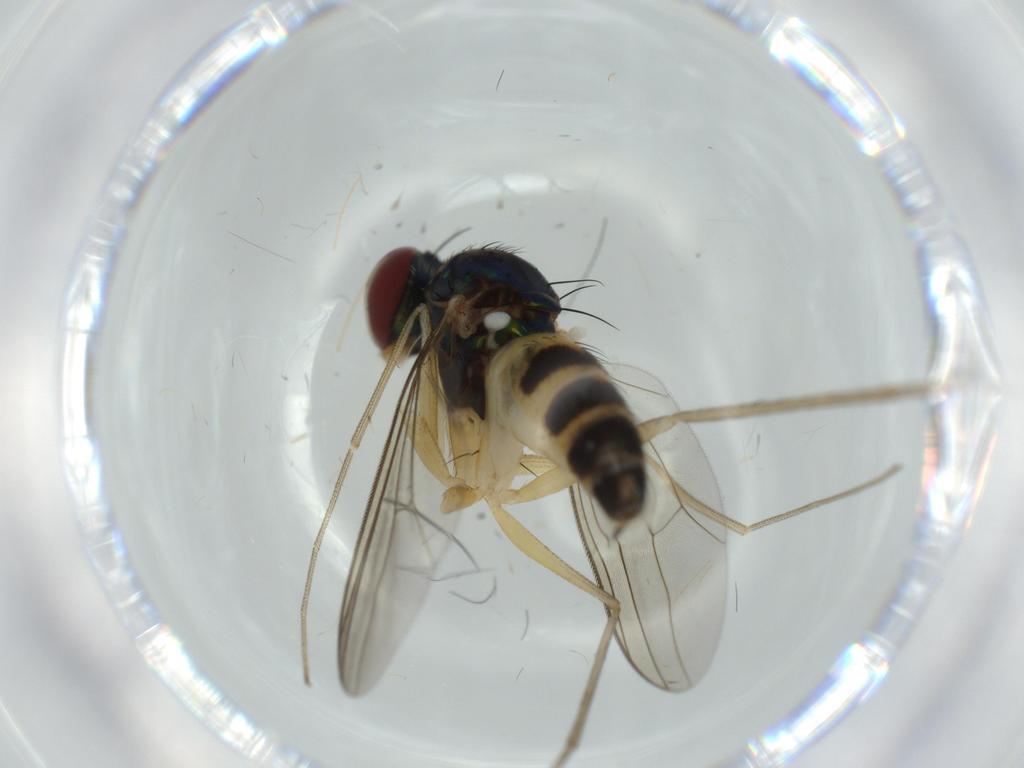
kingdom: Animalia
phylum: Arthropoda
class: Insecta
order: Diptera
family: Dolichopodidae
